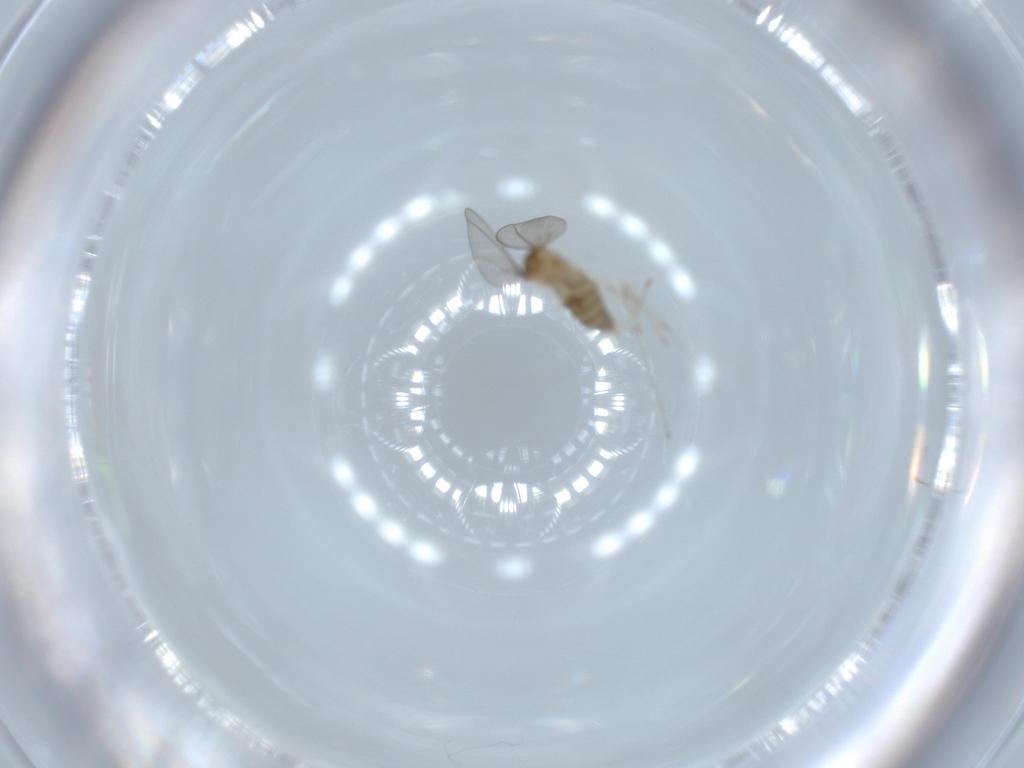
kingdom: Animalia
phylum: Arthropoda
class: Insecta
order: Diptera
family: Cecidomyiidae
